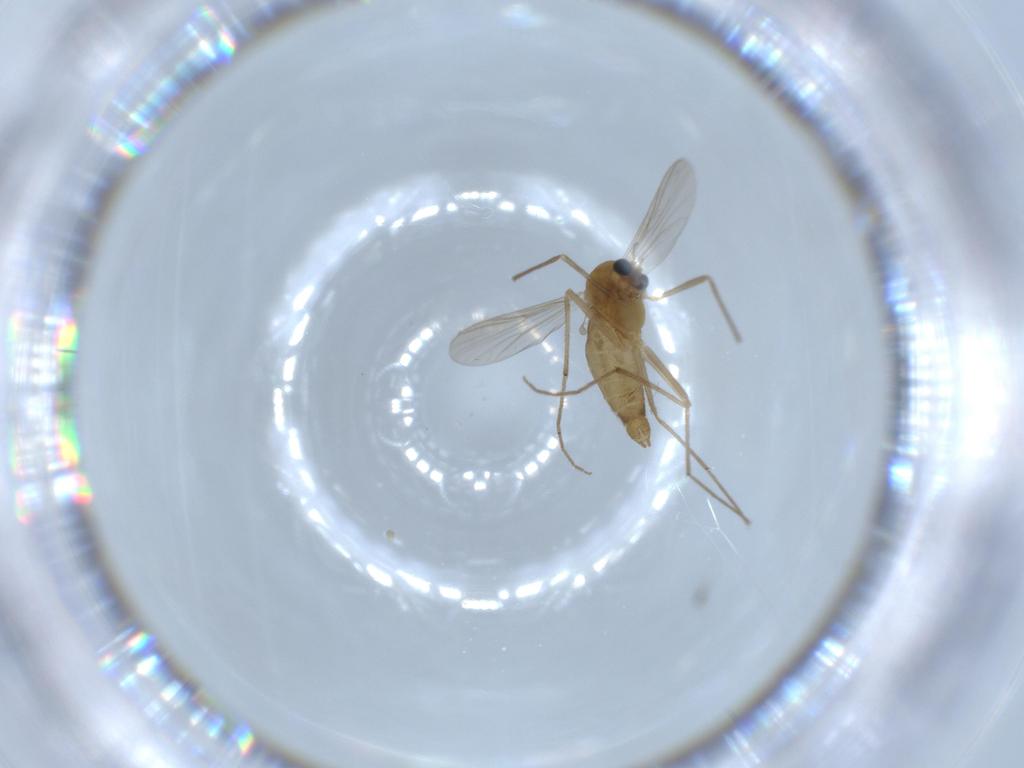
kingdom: Animalia
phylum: Arthropoda
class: Insecta
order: Diptera
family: Chironomidae
